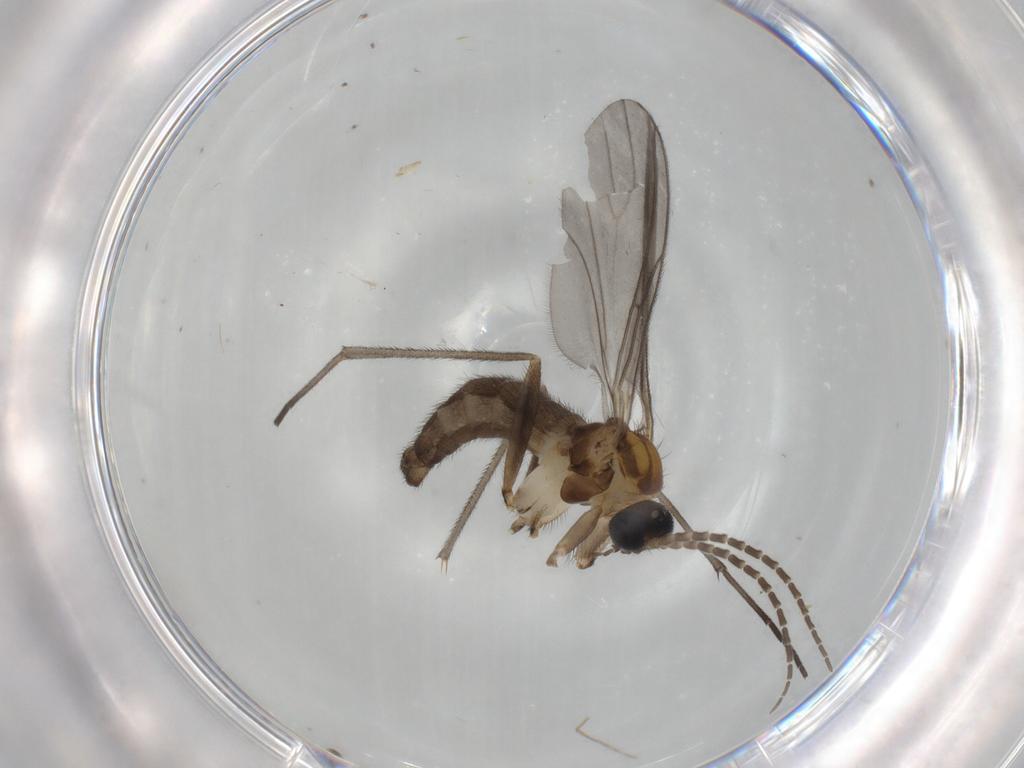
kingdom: Animalia
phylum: Arthropoda
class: Insecta
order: Diptera
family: Sciaridae
